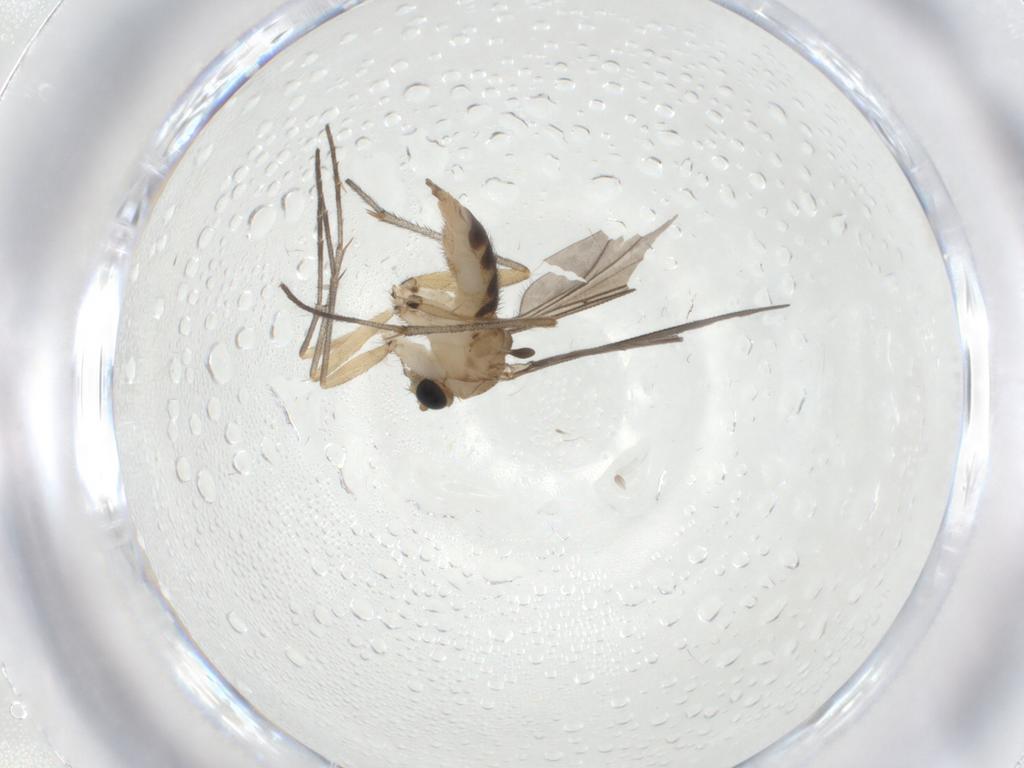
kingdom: Animalia
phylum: Arthropoda
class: Insecta
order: Diptera
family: Sciaridae
